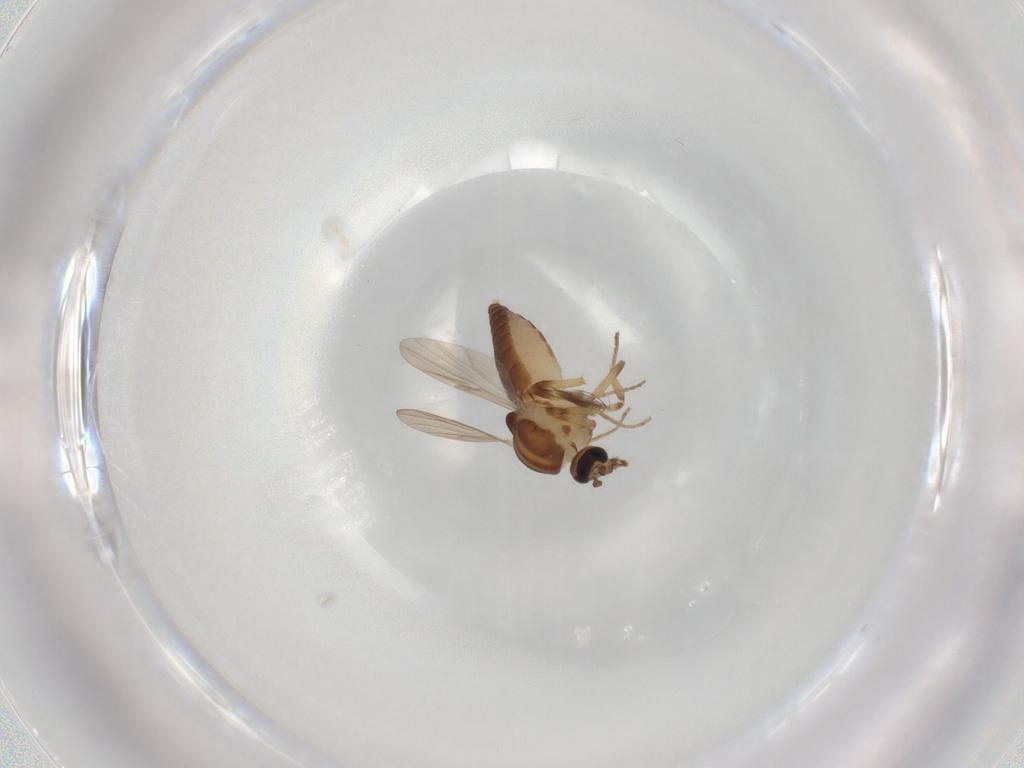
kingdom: Animalia
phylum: Arthropoda
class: Insecta
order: Diptera
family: Ceratopogonidae
